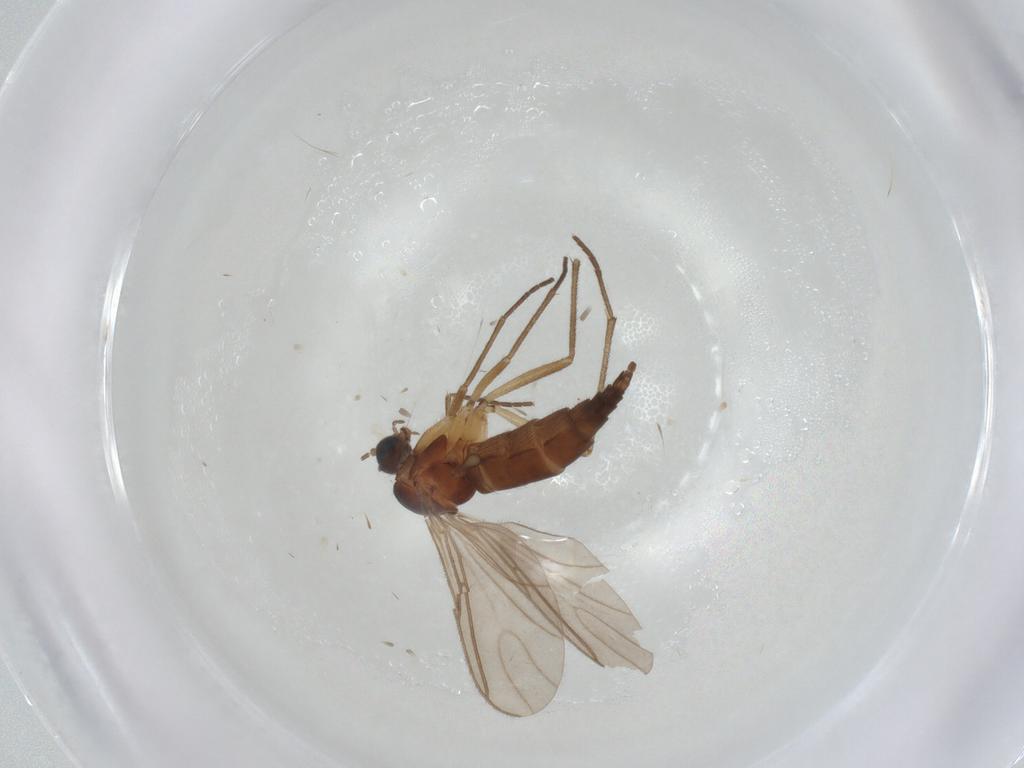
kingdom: Animalia
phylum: Arthropoda
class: Insecta
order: Diptera
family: Sciaridae
